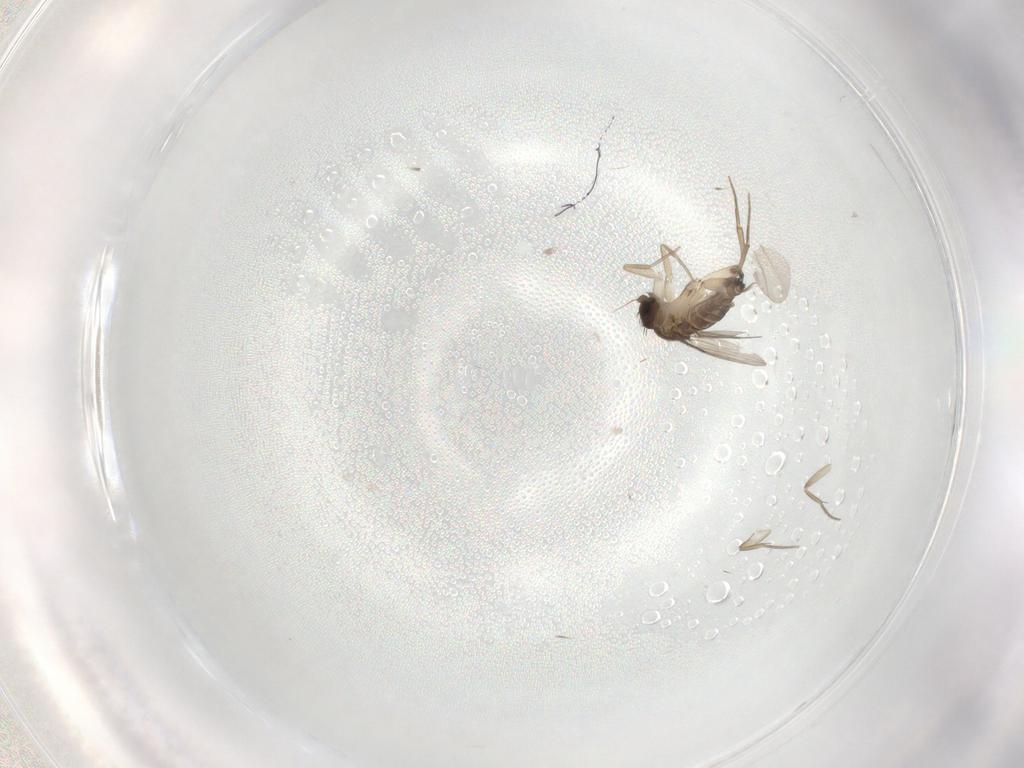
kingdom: Animalia
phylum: Arthropoda
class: Insecta
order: Diptera
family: Phoridae
